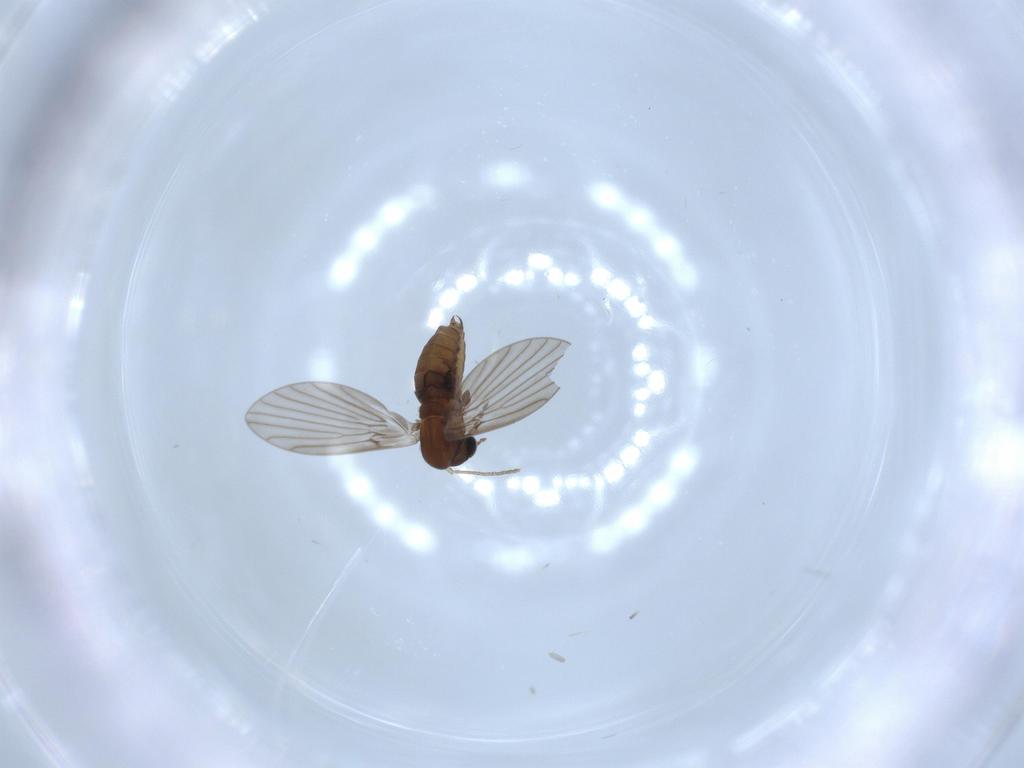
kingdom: Animalia
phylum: Arthropoda
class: Insecta
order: Diptera
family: Psychodidae
